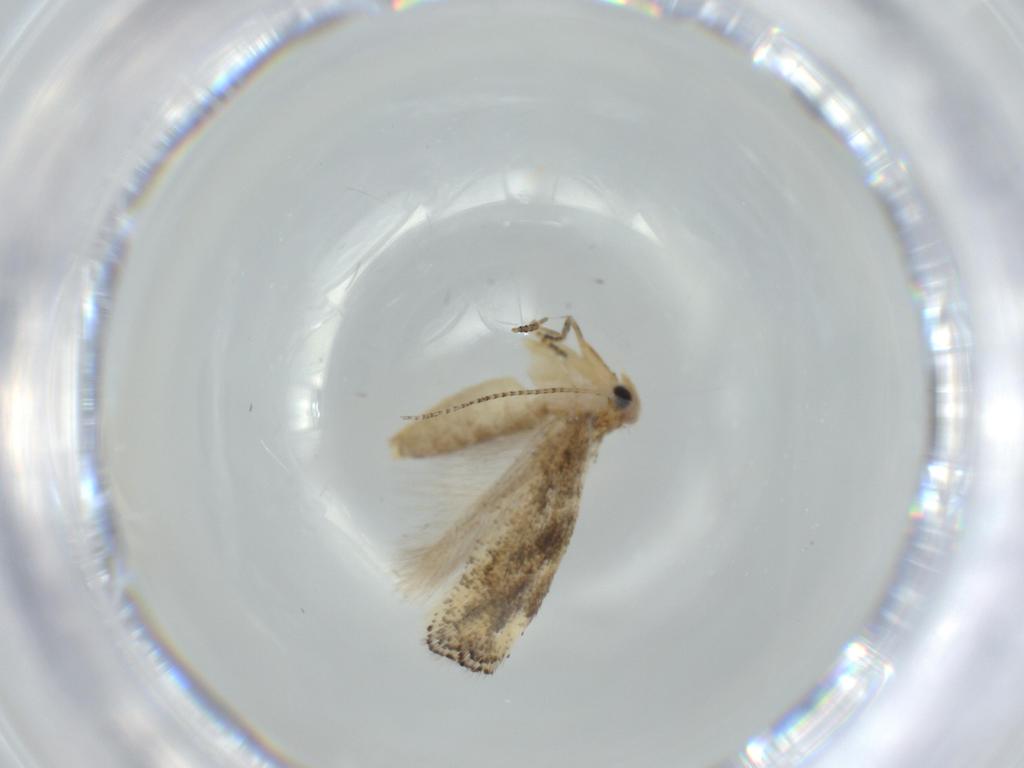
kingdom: Animalia
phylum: Arthropoda
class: Insecta
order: Lepidoptera
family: Bucculatricidae
